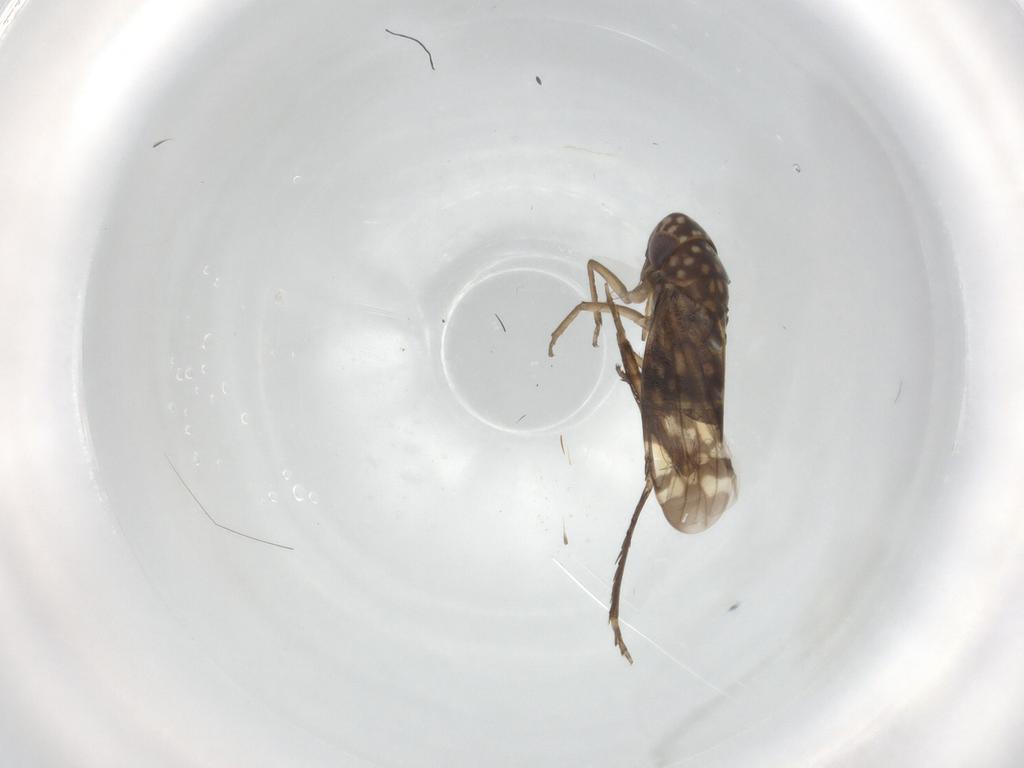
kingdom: Animalia
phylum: Arthropoda
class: Insecta
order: Hemiptera
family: Cicadellidae
